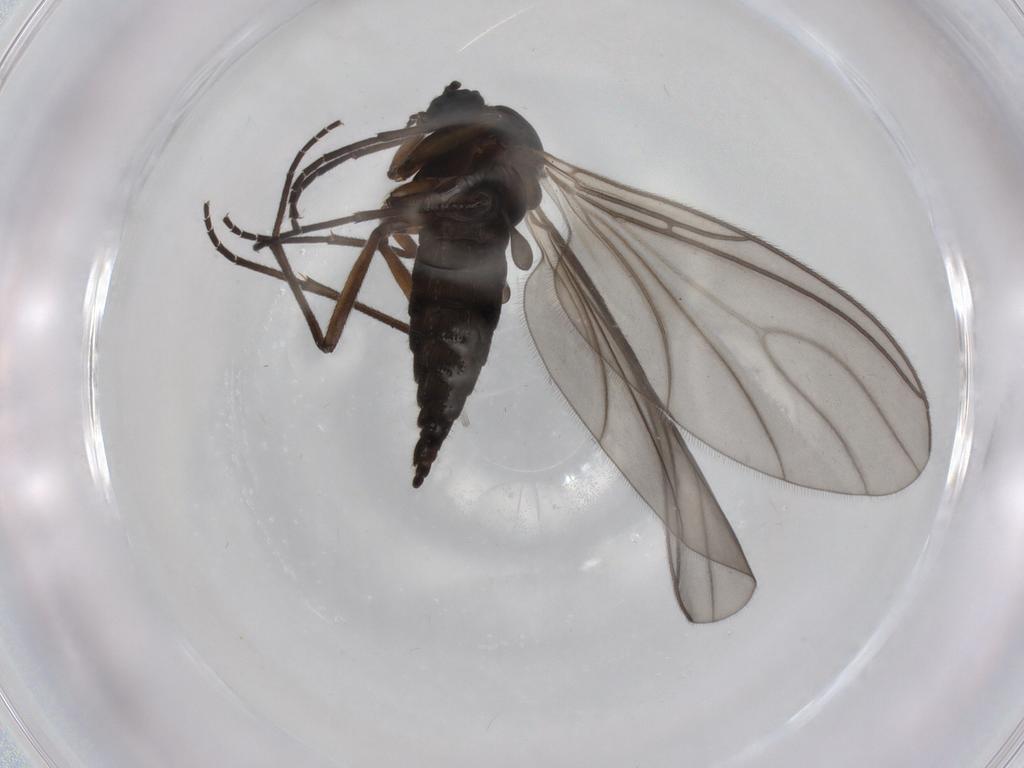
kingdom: Animalia
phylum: Arthropoda
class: Insecta
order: Diptera
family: Sciaridae
